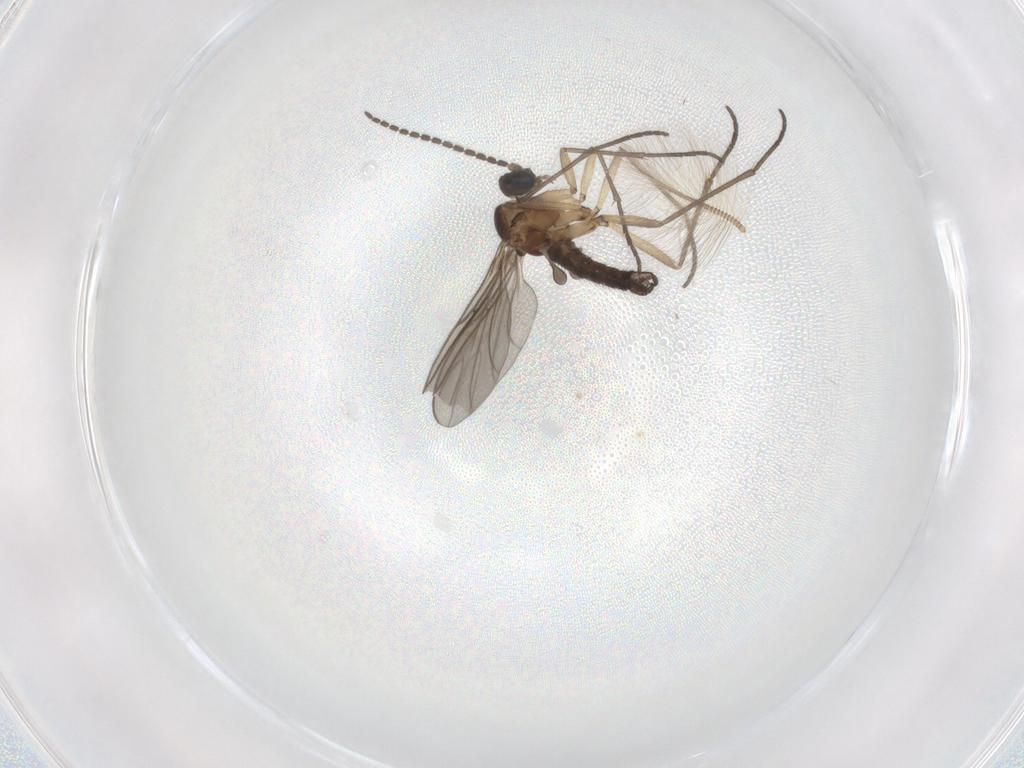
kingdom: Animalia
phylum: Arthropoda
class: Insecta
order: Diptera
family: Sciaridae
